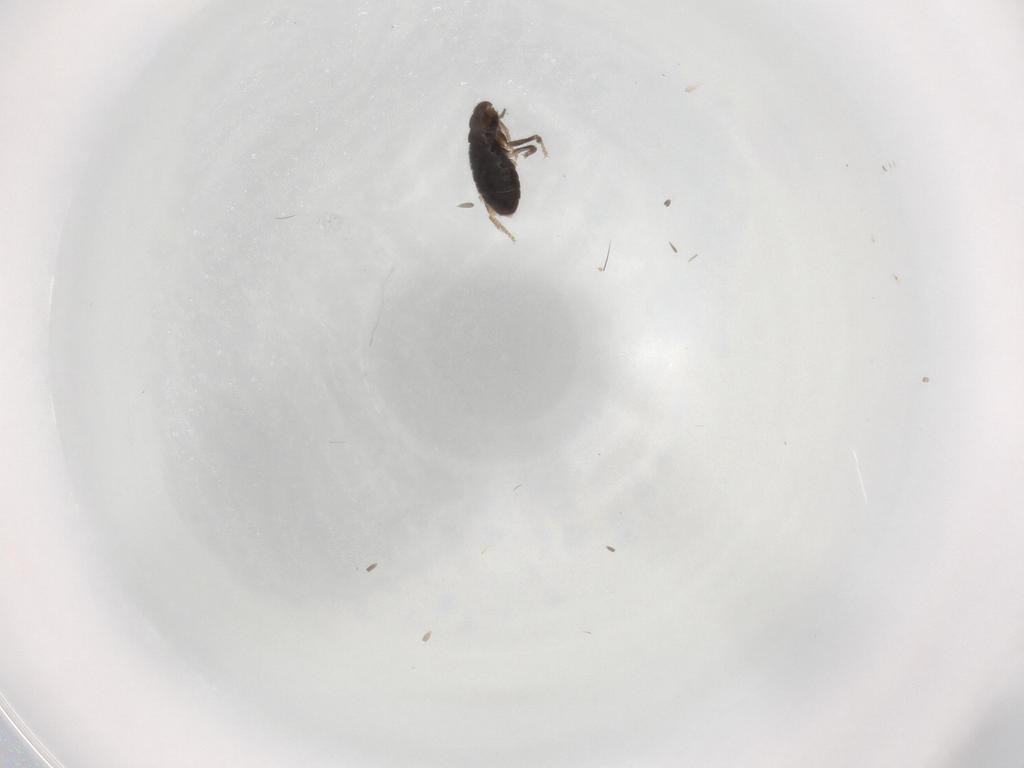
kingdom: Animalia
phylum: Arthropoda
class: Insecta
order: Diptera
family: Phoridae
